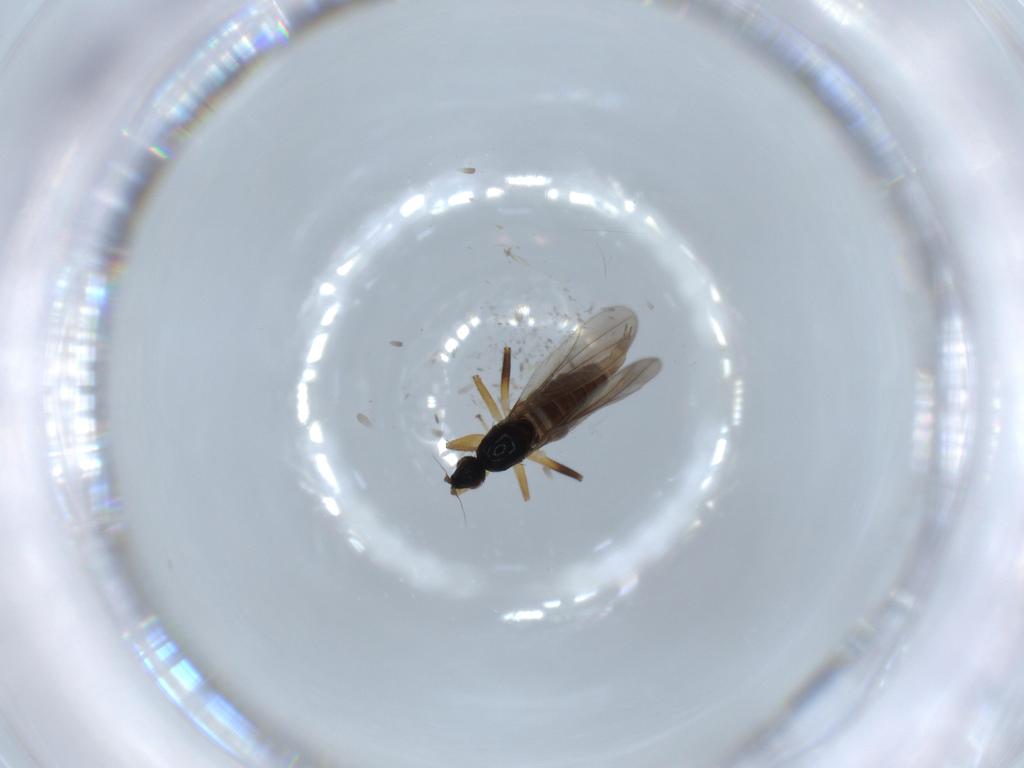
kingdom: Animalia
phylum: Arthropoda
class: Insecta
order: Diptera
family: Hybotidae
